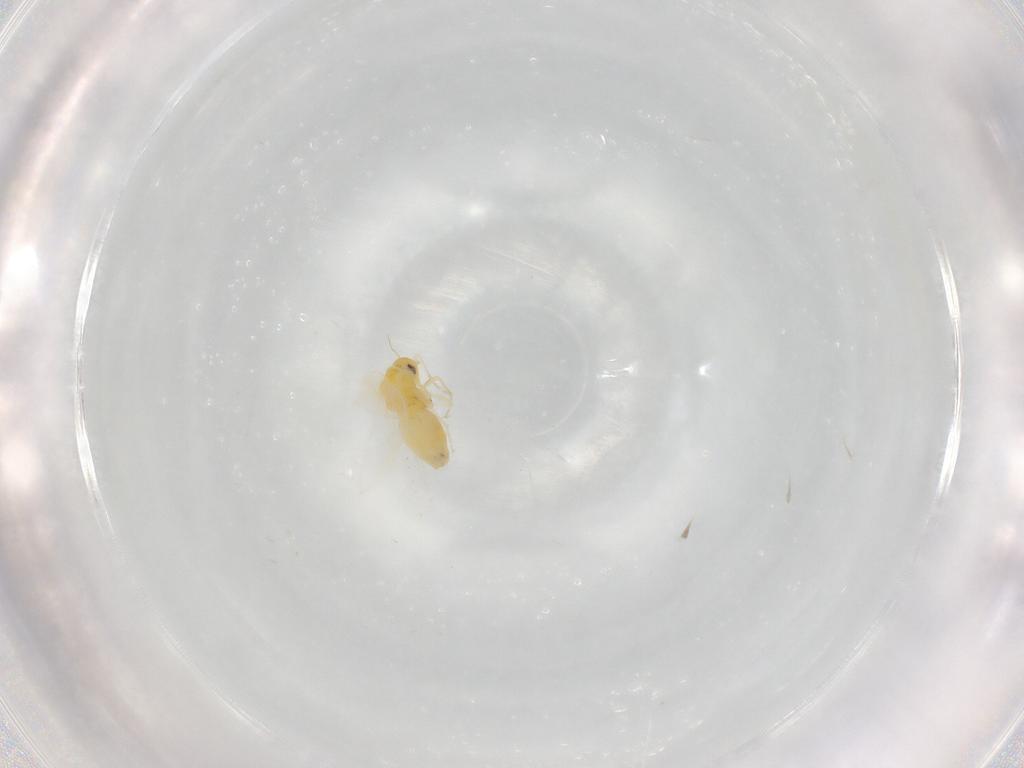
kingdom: Animalia
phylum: Arthropoda
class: Insecta
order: Hemiptera
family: Aleyrodidae
